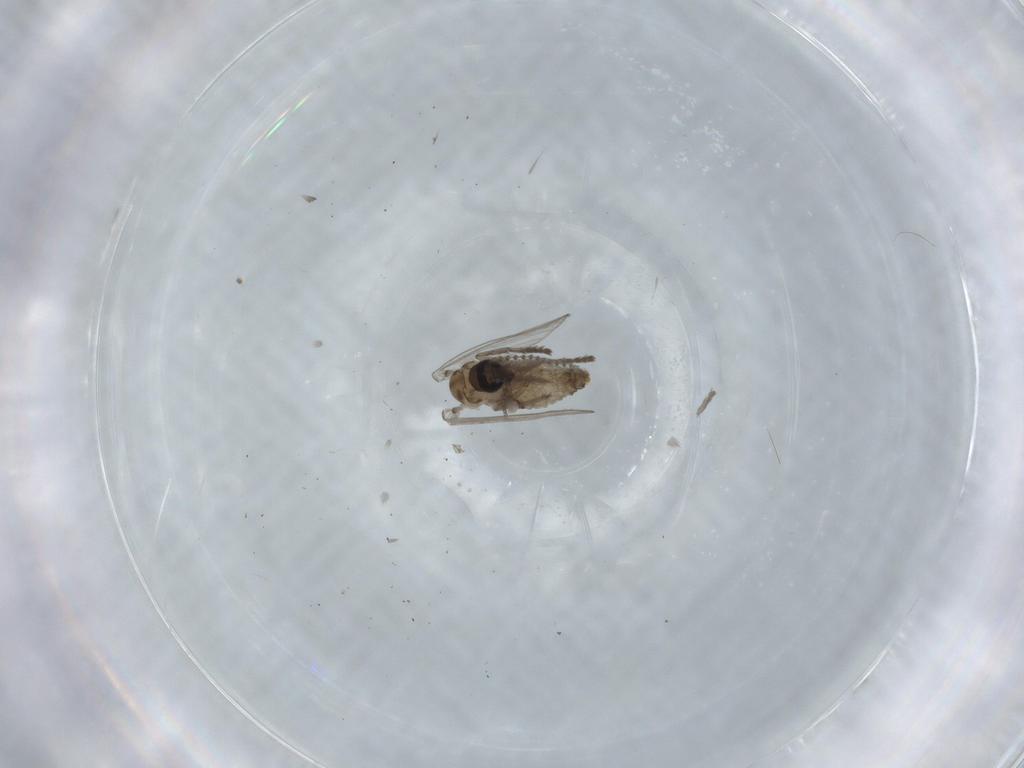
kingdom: Animalia
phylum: Arthropoda
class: Insecta
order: Diptera
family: Psychodidae
